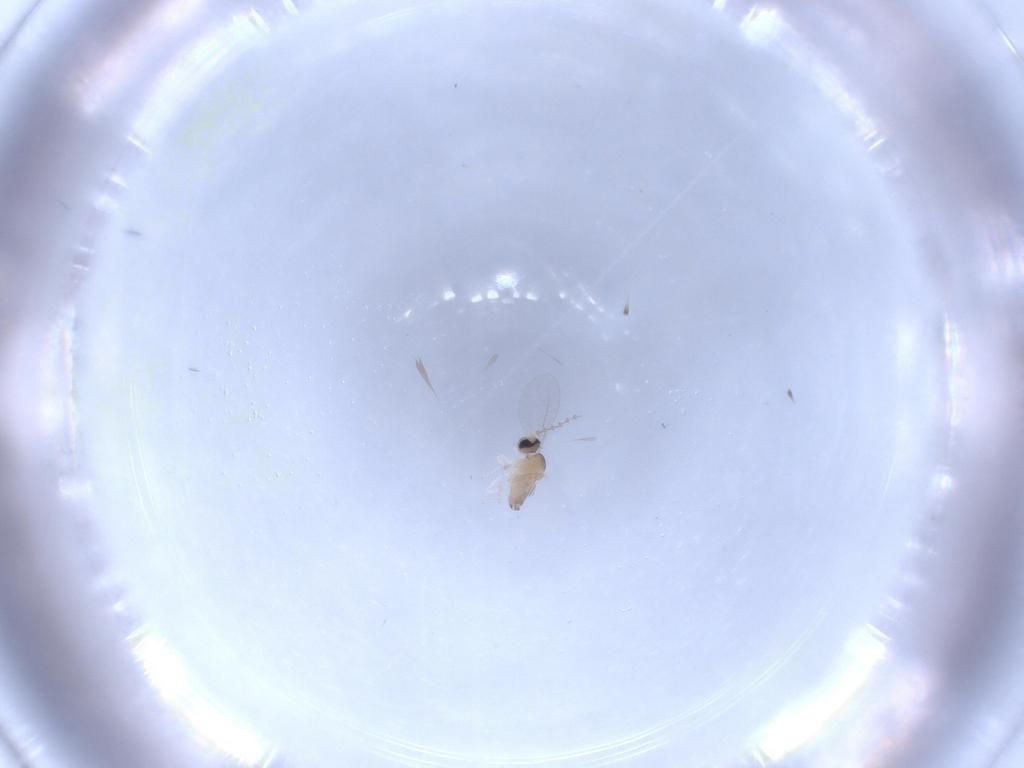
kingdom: Animalia
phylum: Arthropoda
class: Insecta
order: Diptera
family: Cecidomyiidae
